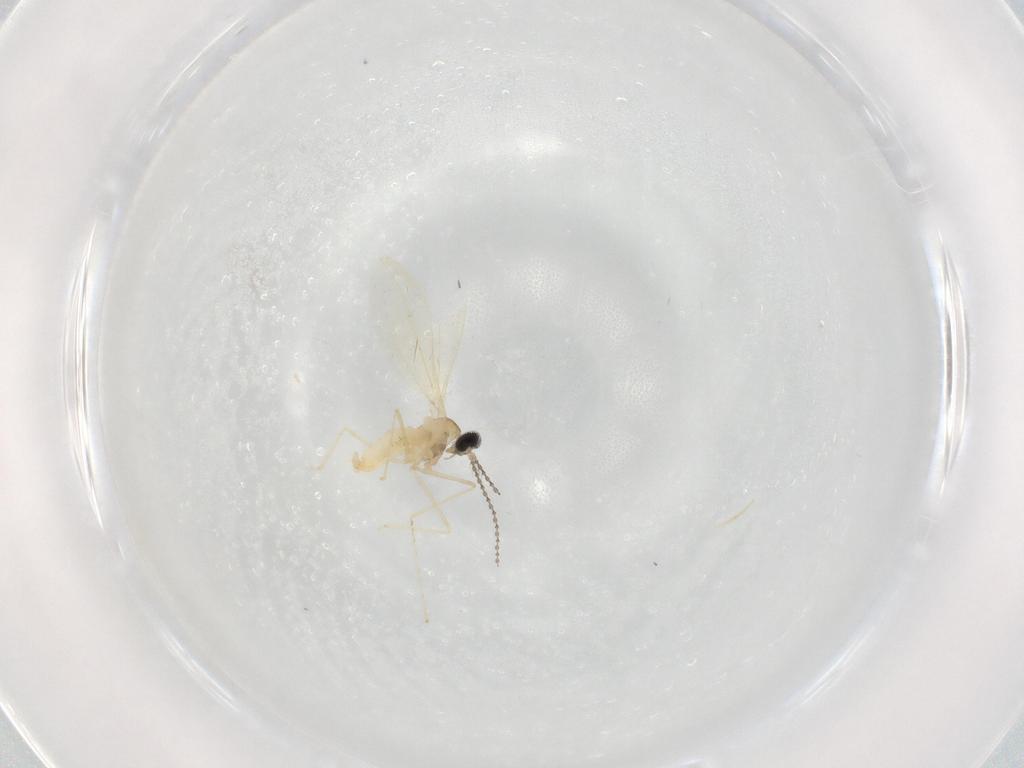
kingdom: Animalia
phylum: Arthropoda
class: Insecta
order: Diptera
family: Cecidomyiidae
